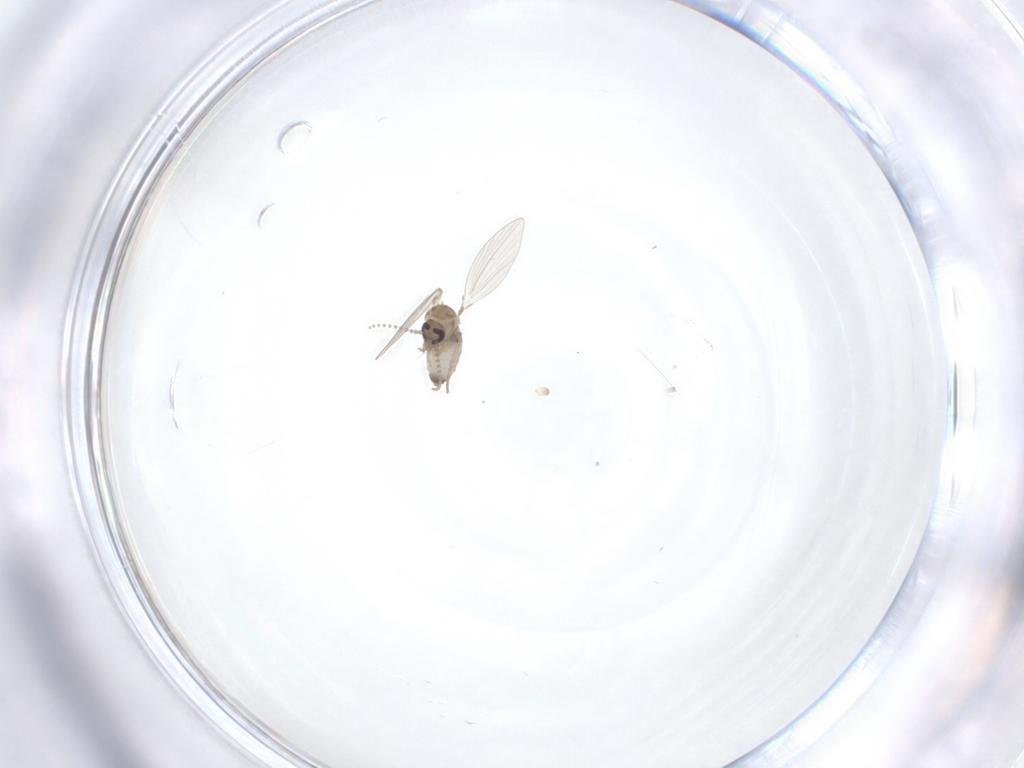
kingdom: Animalia
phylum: Arthropoda
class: Insecta
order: Diptera
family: Psychodidae
